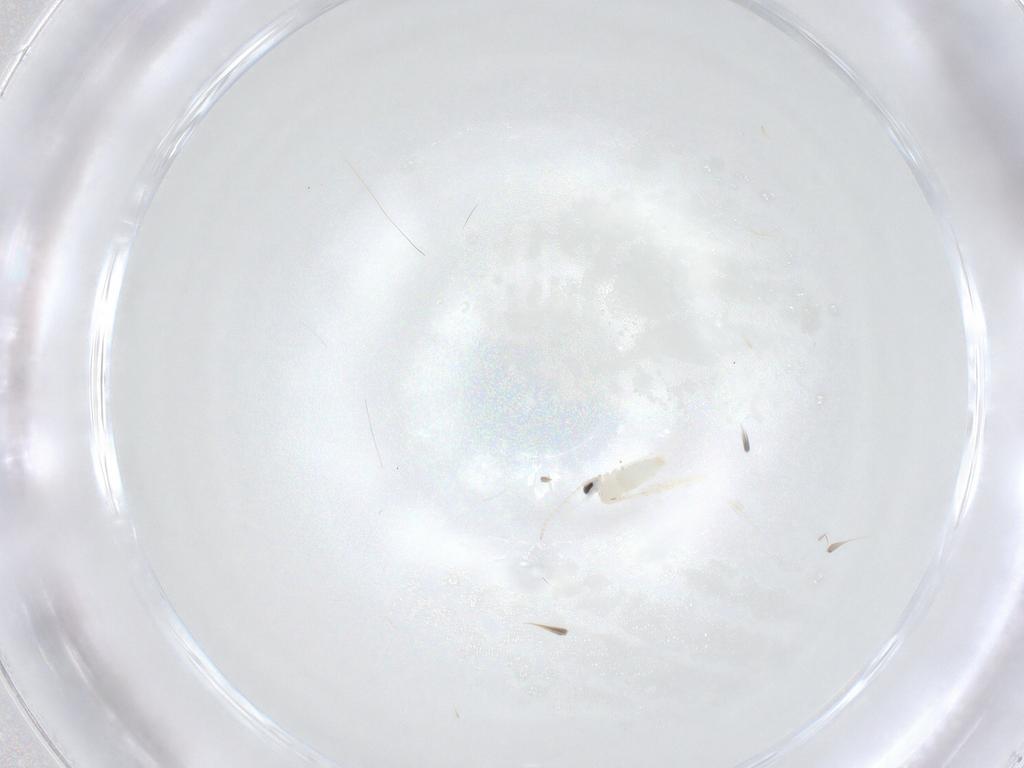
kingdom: Animalia
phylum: Arthropoda
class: Insecta
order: Diptera
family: Cecidomyiidae
